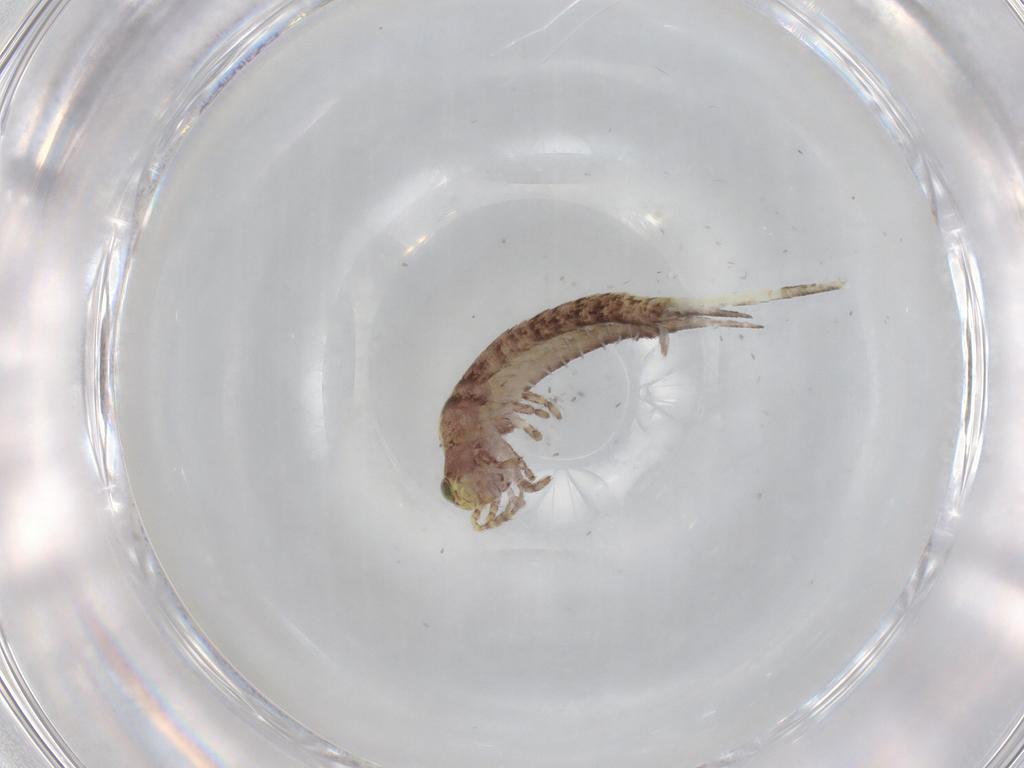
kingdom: Animalia
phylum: Arthropoda
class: Insecta
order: Archaeognatha
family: Machilidae
